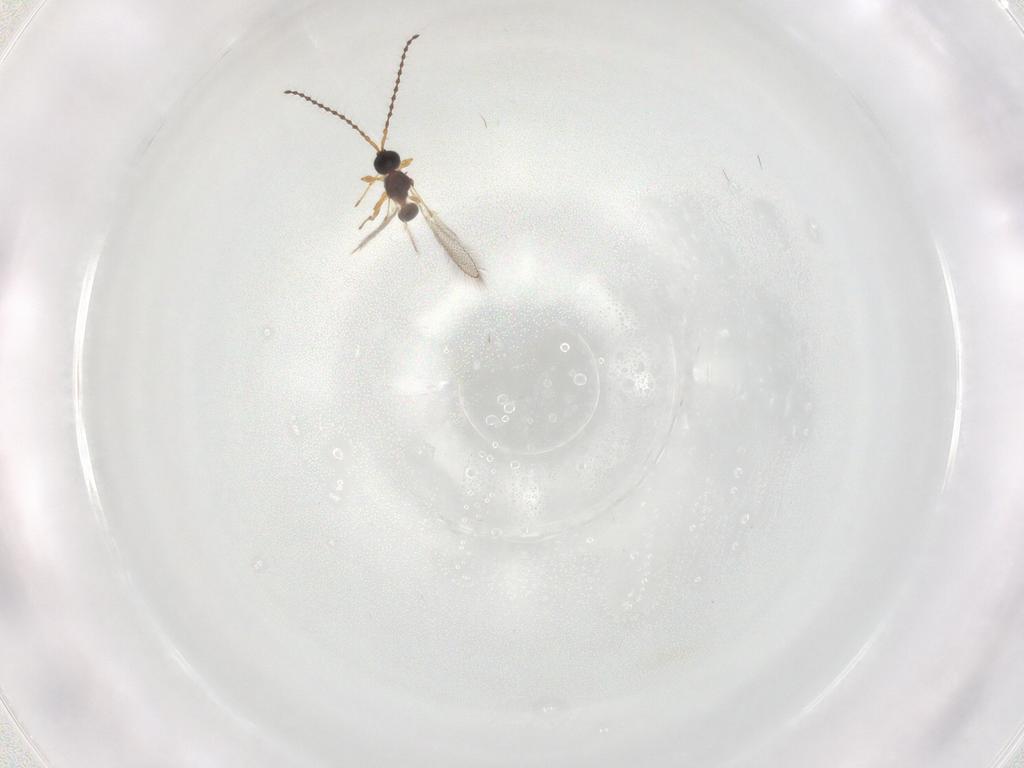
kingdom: Animalia
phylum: Arthropoda
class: Insecta
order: Hymenoptera
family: Diapriidae
